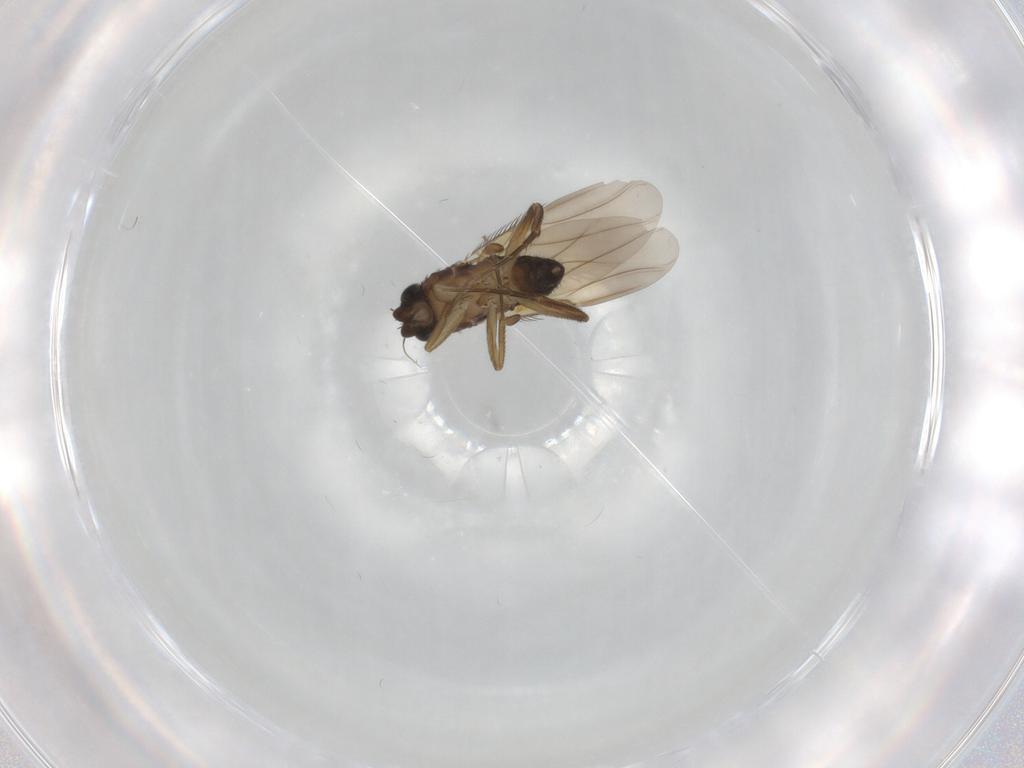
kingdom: Animalia
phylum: Arthropoda
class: Insecta
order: Diptera
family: Phoridae
